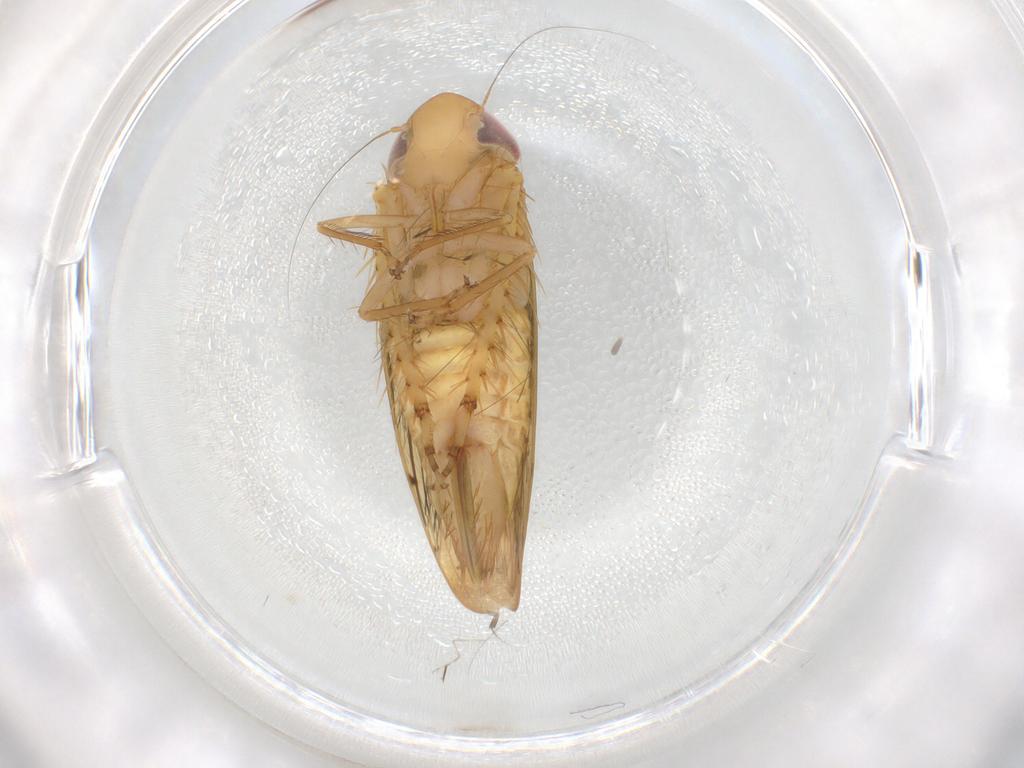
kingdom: Animalia
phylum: Arthropoda
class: Insecta
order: Hemiptera
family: Cicadellidae
